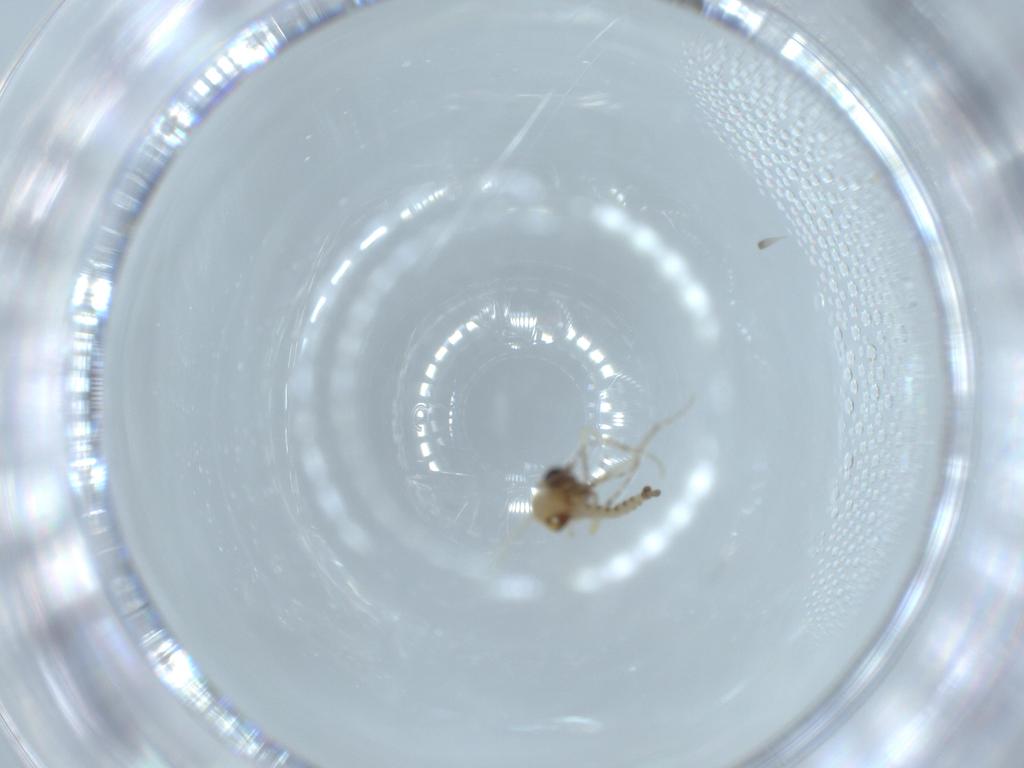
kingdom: Animalia
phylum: Arthropoda
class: Insecta
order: Diptera
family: Ceratopogonidae
